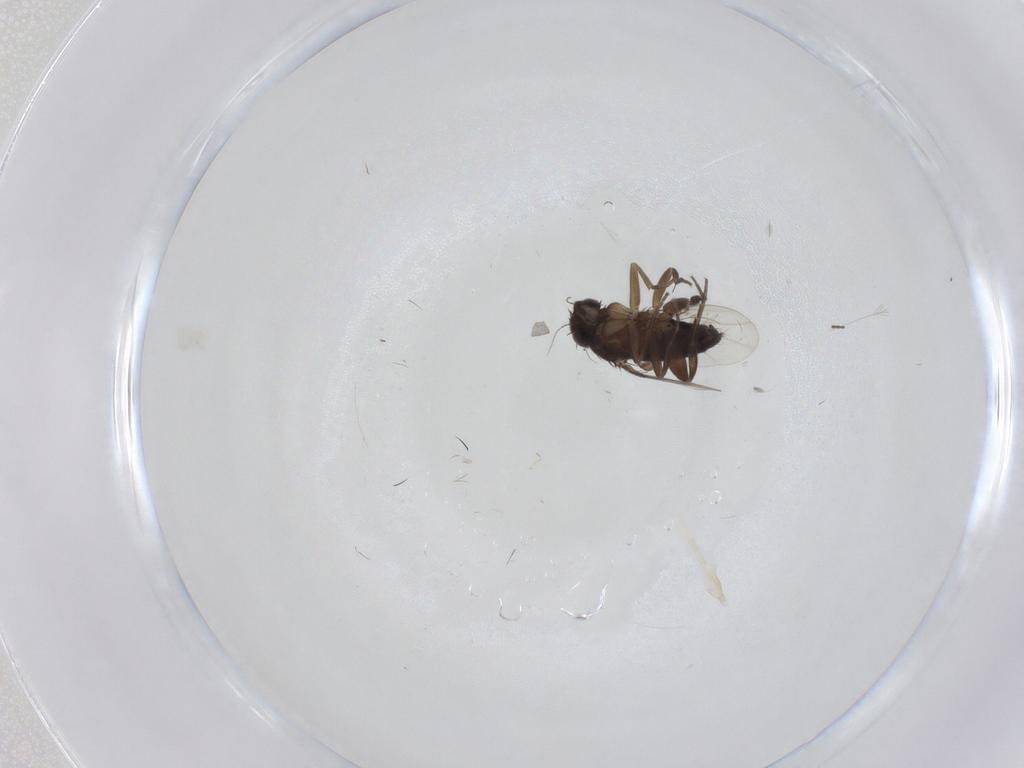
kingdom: Animalia
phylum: Arthropoda
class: Insecta
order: Diptera
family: Phoridae
